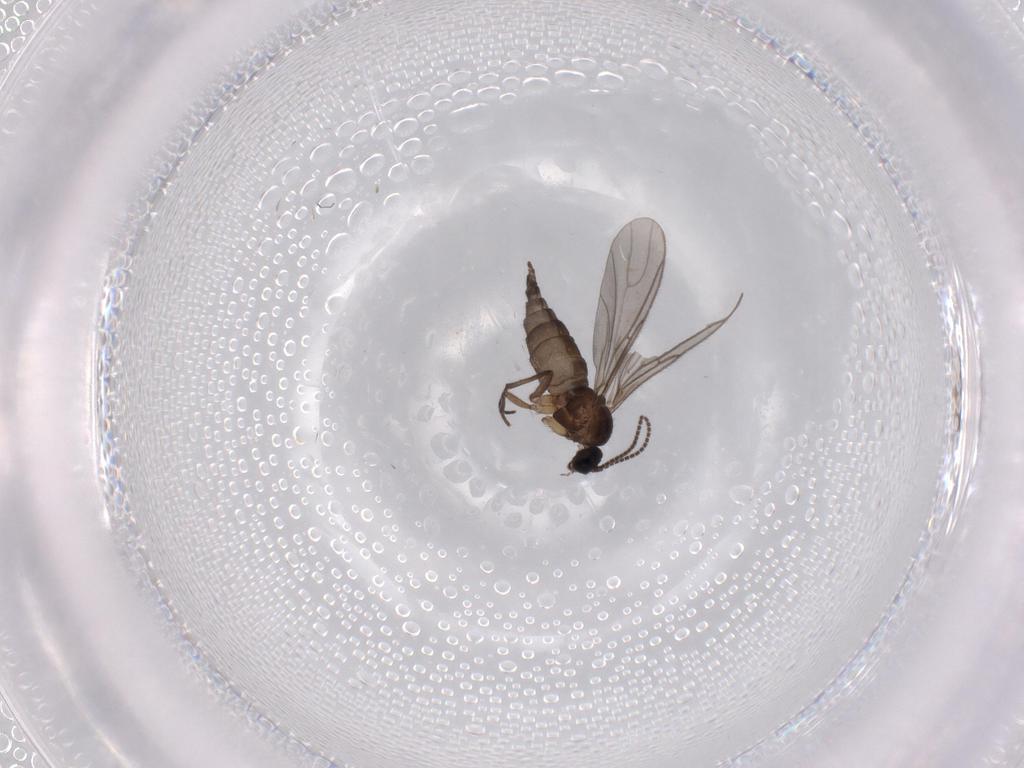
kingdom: Animalia
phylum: Arthropoda
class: Insecta
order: Diptera
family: Sciaridae
